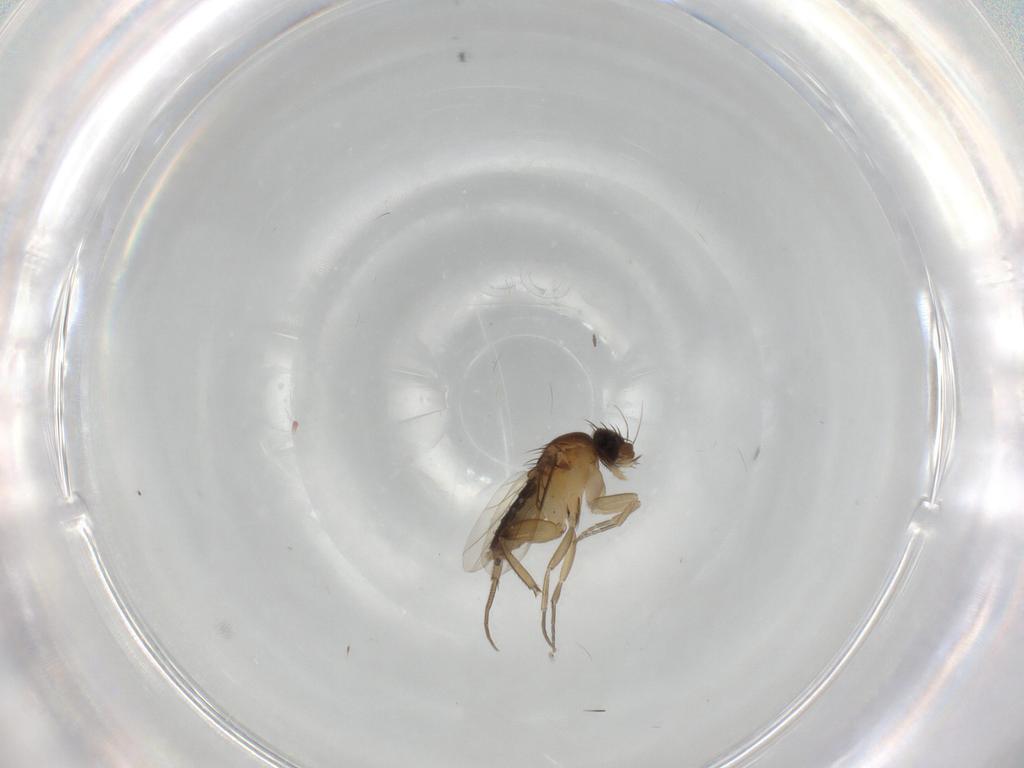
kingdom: Animalia
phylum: Arthropoda
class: Insecta
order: Diptera
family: Phoridae
